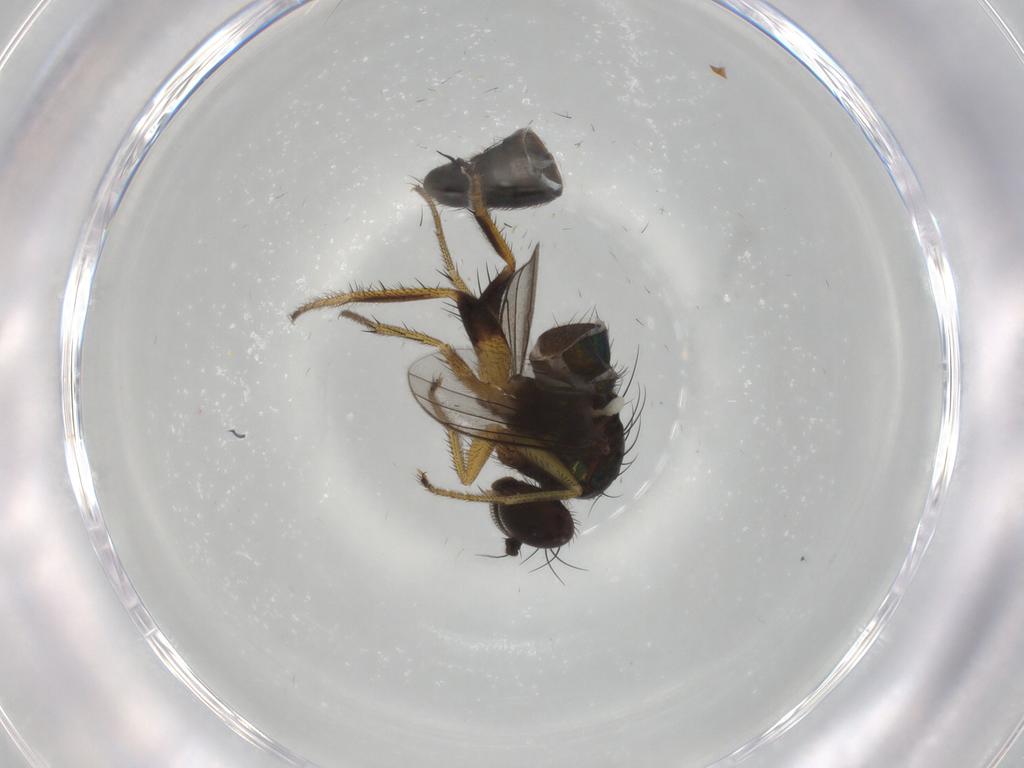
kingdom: Animalia
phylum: Arthropoda
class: Insecta
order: Diptera
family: Dolichopodidae
